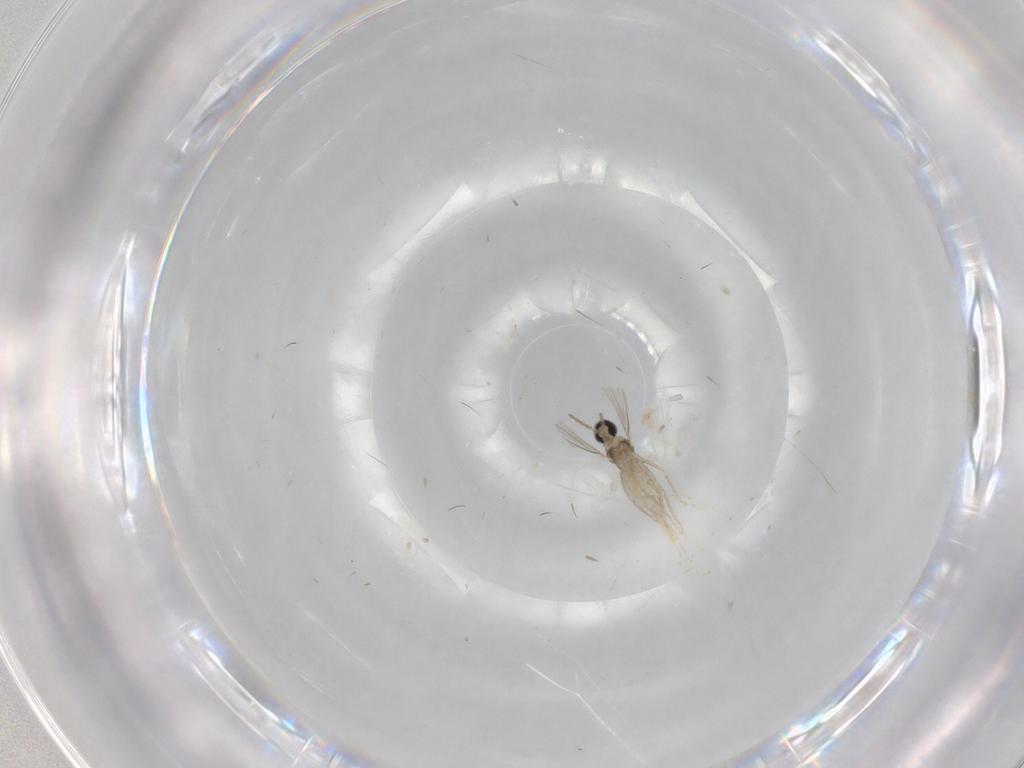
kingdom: Animalia
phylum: Arthropoda
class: Insecta
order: Diptera
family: Cecidomyiidae
